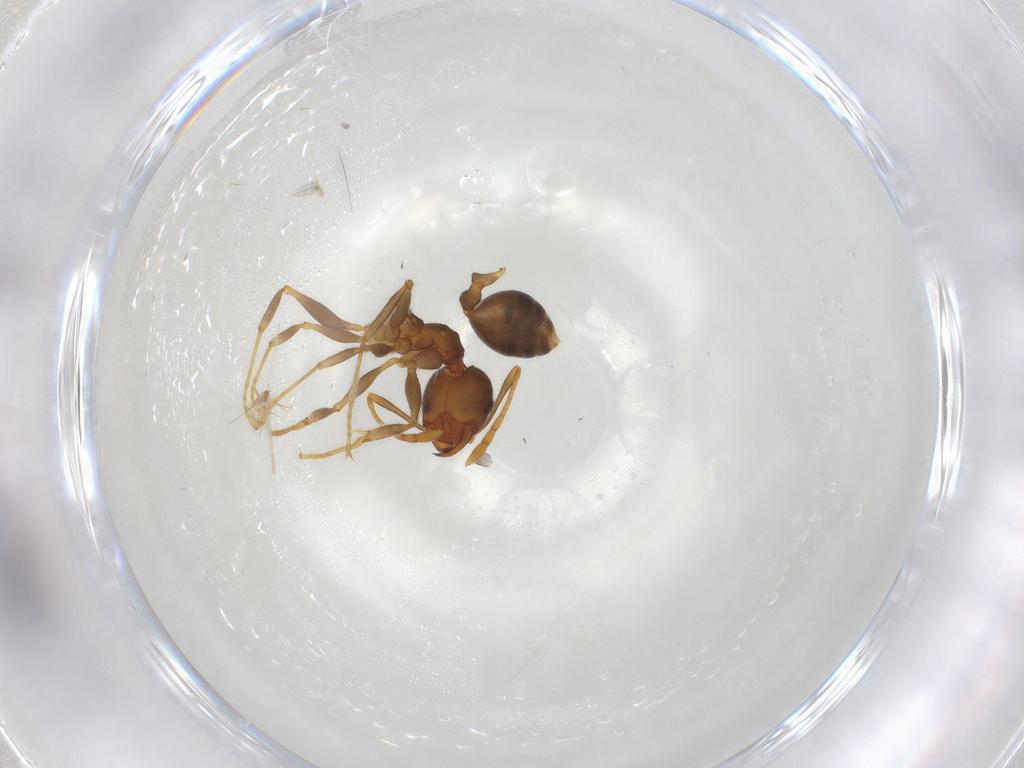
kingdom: Animalia
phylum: Arthropoda
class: Insecta
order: Hymenoptera
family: Formicidae
